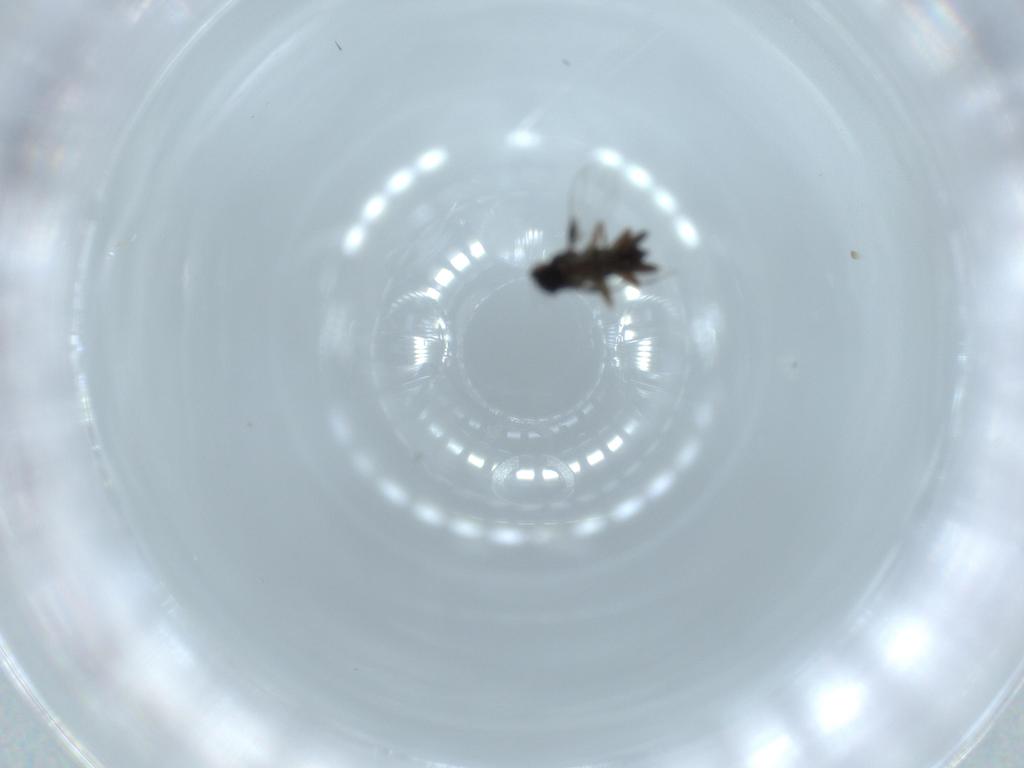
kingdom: Animalia
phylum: Arthropoda
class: Insecta
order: Diptera
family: Phoridae
